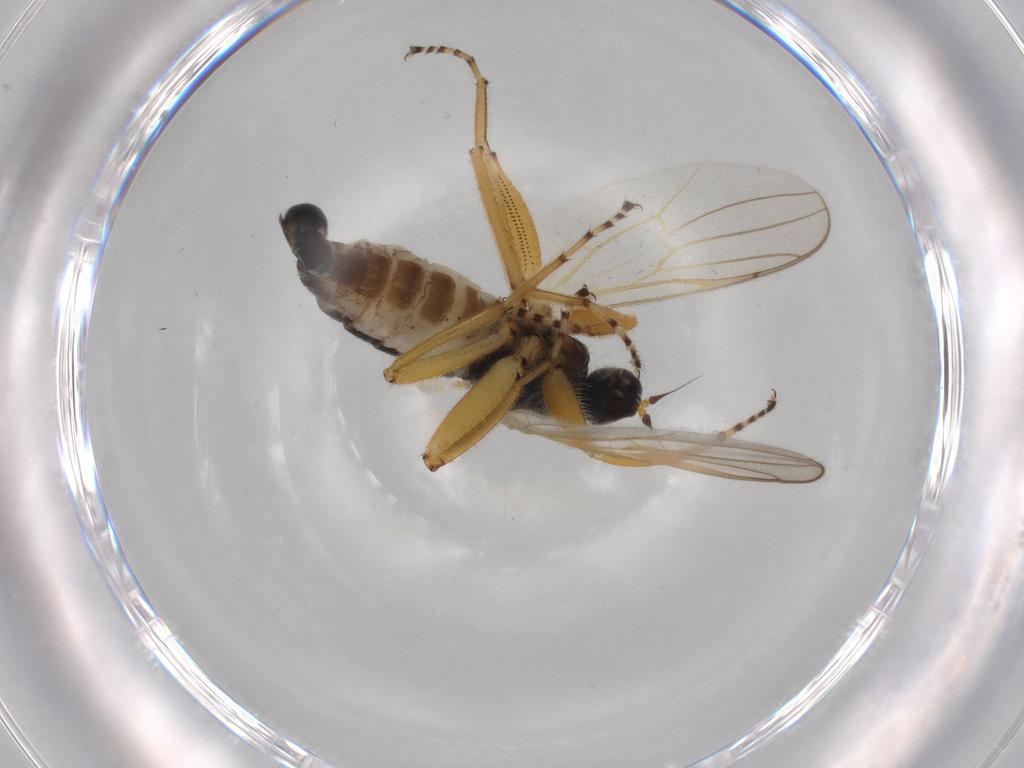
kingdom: Animalia
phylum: Arthropoda
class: Insecta
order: Diptera
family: Hybotidae
